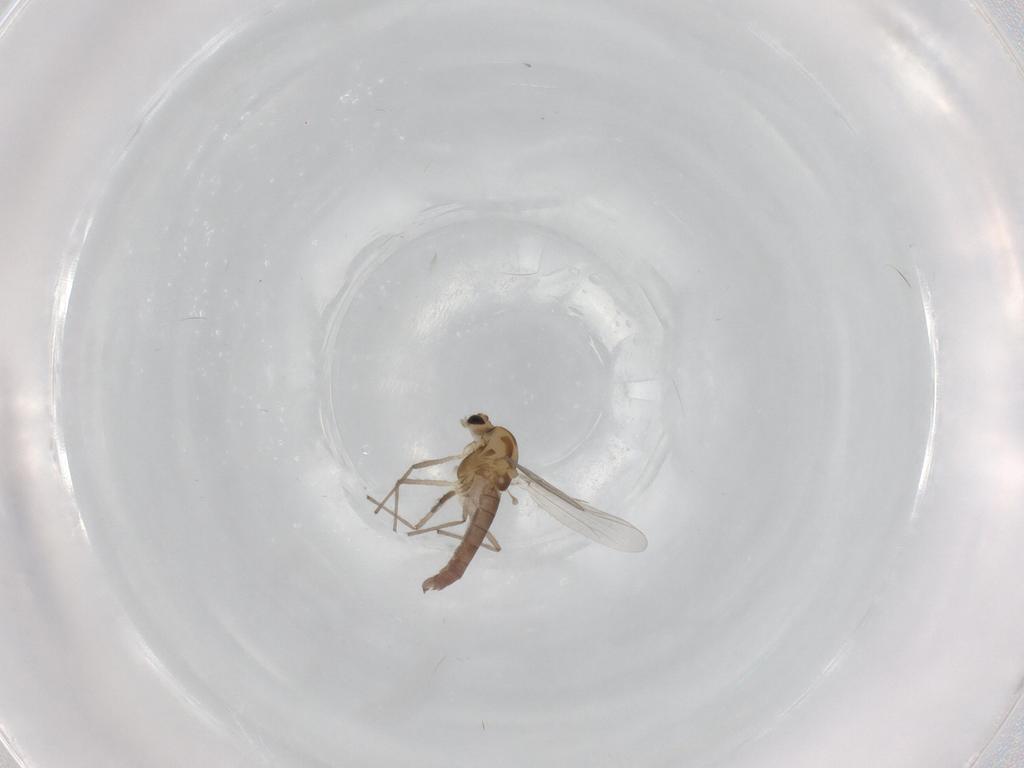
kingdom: Animalia
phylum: Arthropoda
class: Insecta
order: Diptera
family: Chironomidae
